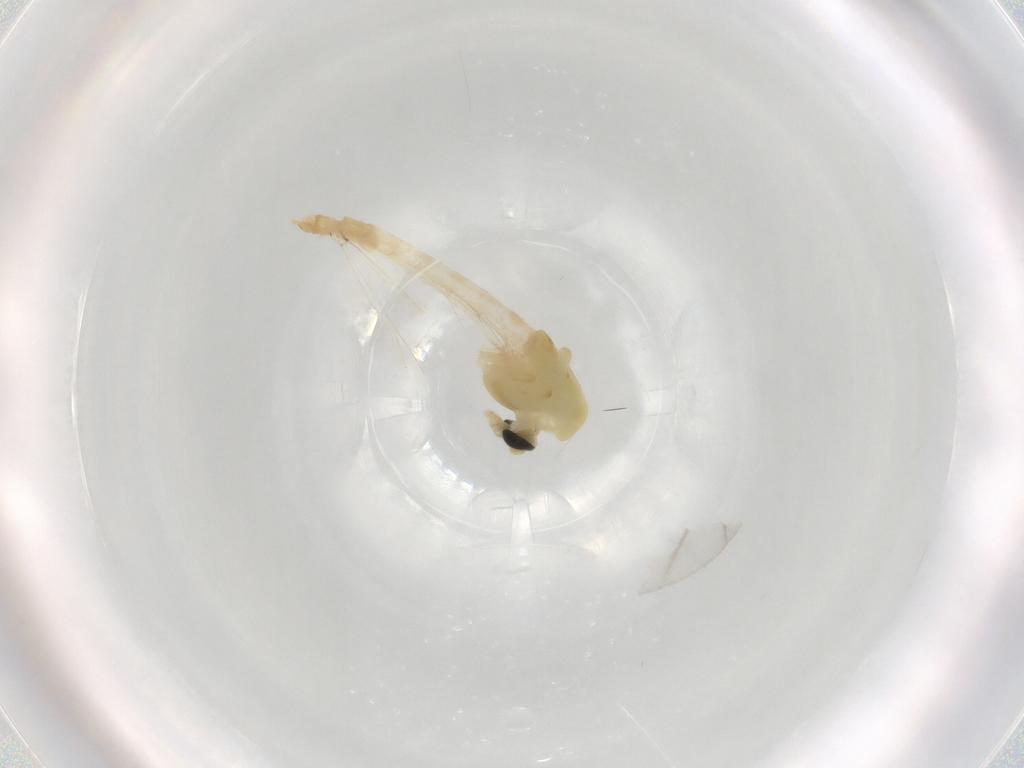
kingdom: Animalia
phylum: Arthropoda
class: Insecta
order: Diptera
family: Chironomidae
